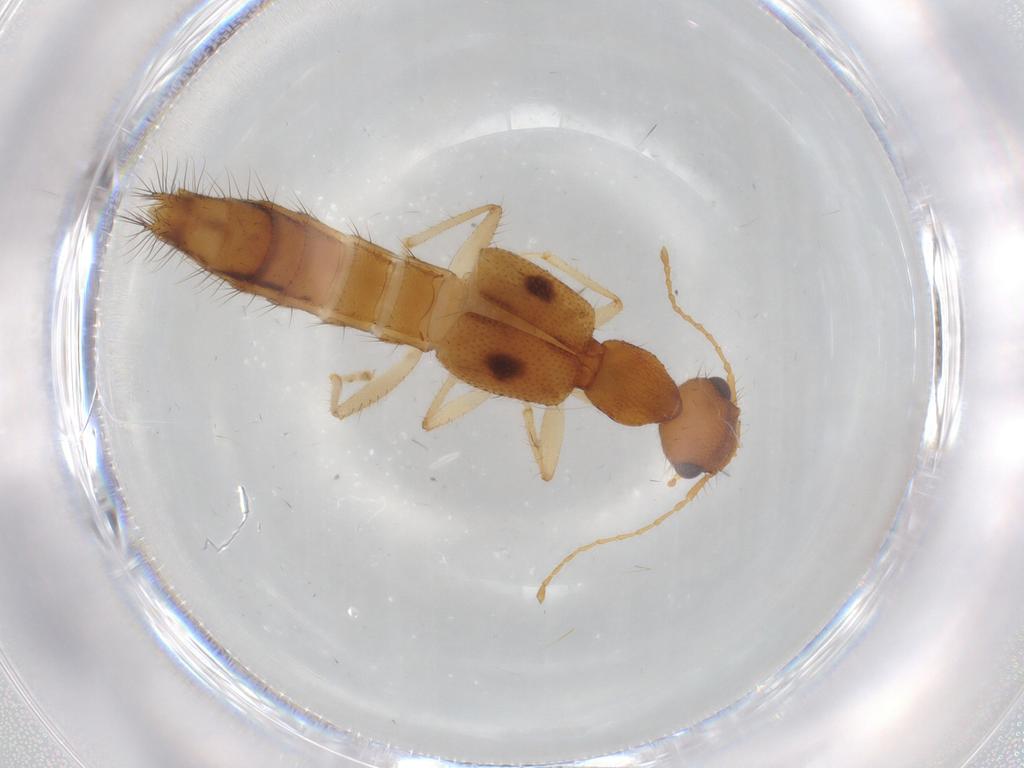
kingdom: Animalia
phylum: Arthropoda
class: Insecta
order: Coleoptera
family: Staphylinidae
